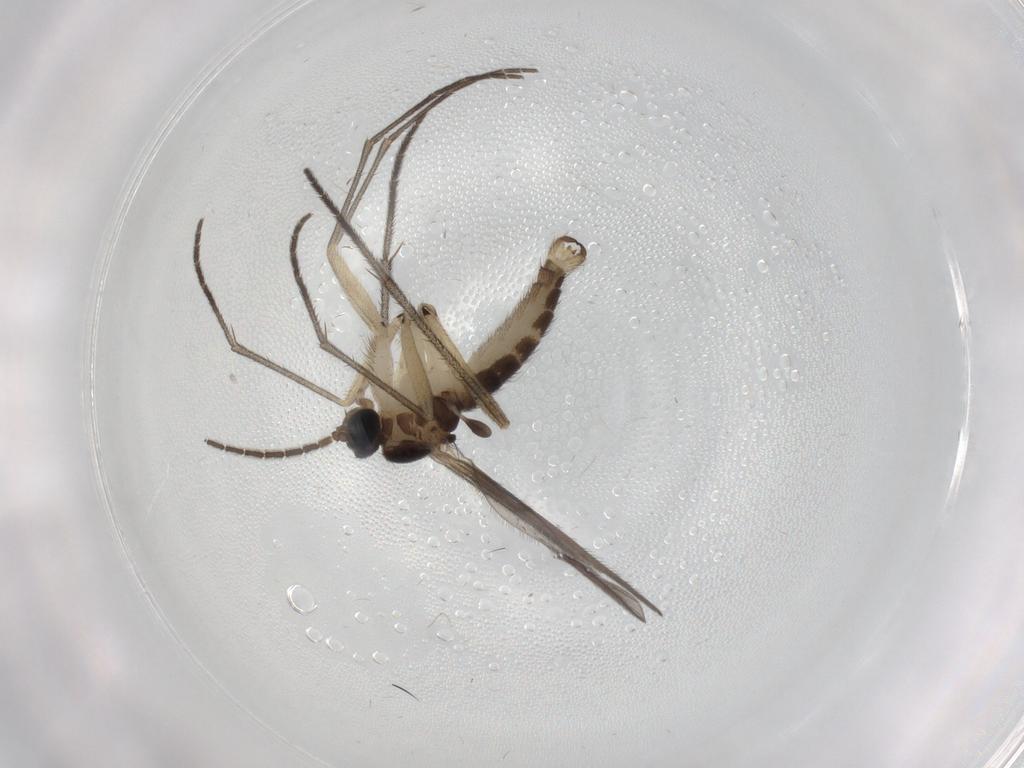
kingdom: Animalia
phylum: Arthropoda
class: Insecta
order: Diptera
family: Sciaridae
